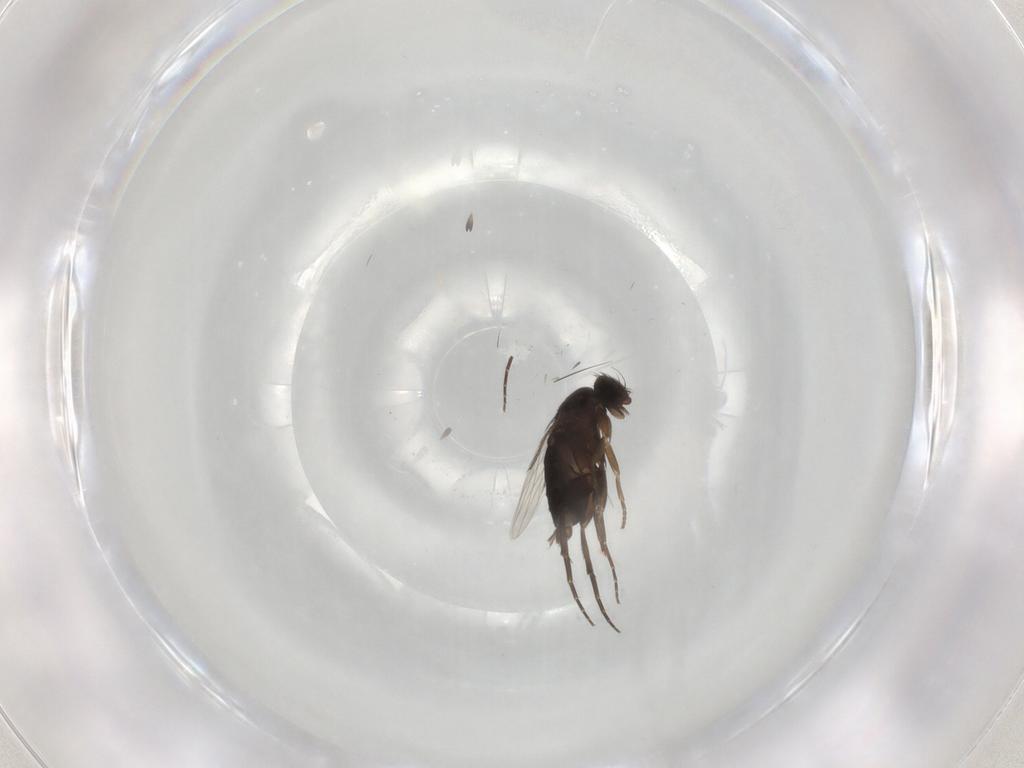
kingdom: Animalia
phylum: Arthropoda
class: Insecta
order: Diptera
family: Phoridae
